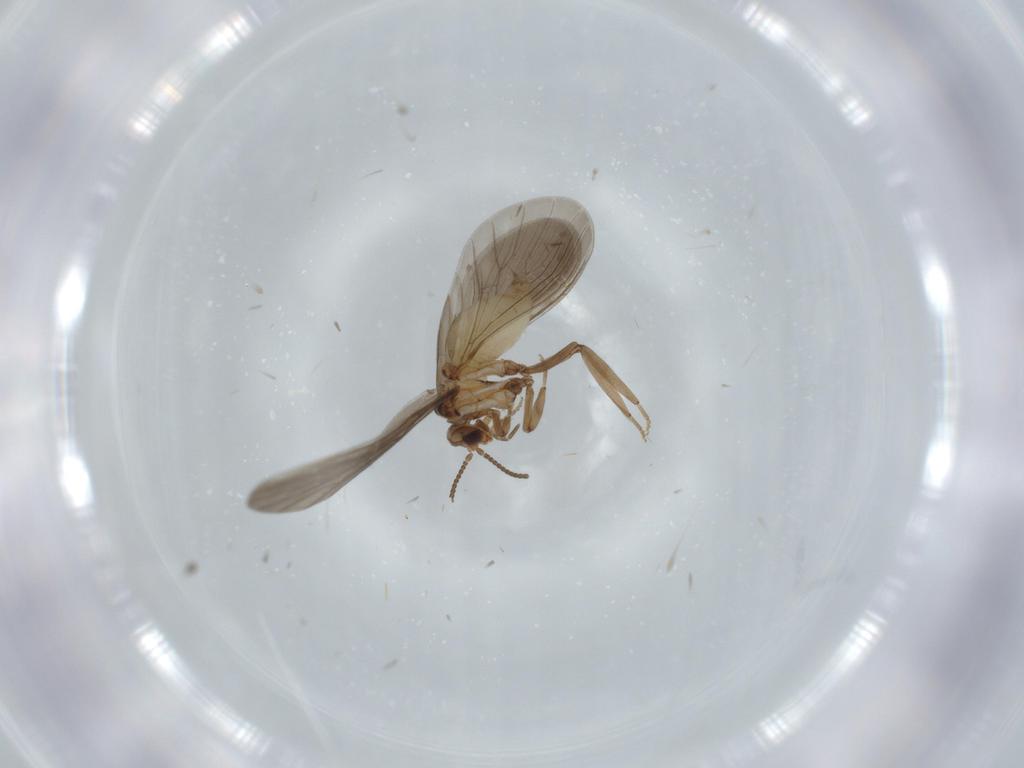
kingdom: Animalia
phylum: Arthropoda
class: Insecta
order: Neuroptera
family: Coniopterygidae
